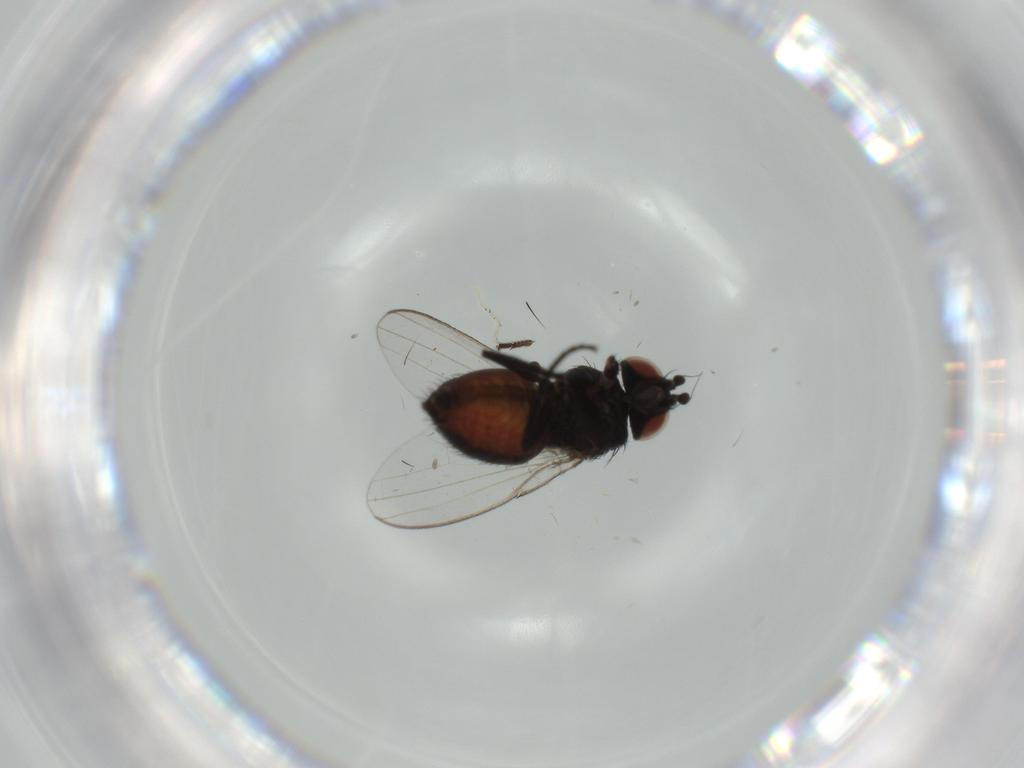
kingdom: Animalia
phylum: Arthropoda
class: Insecta
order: Diptera
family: Milichiidae
